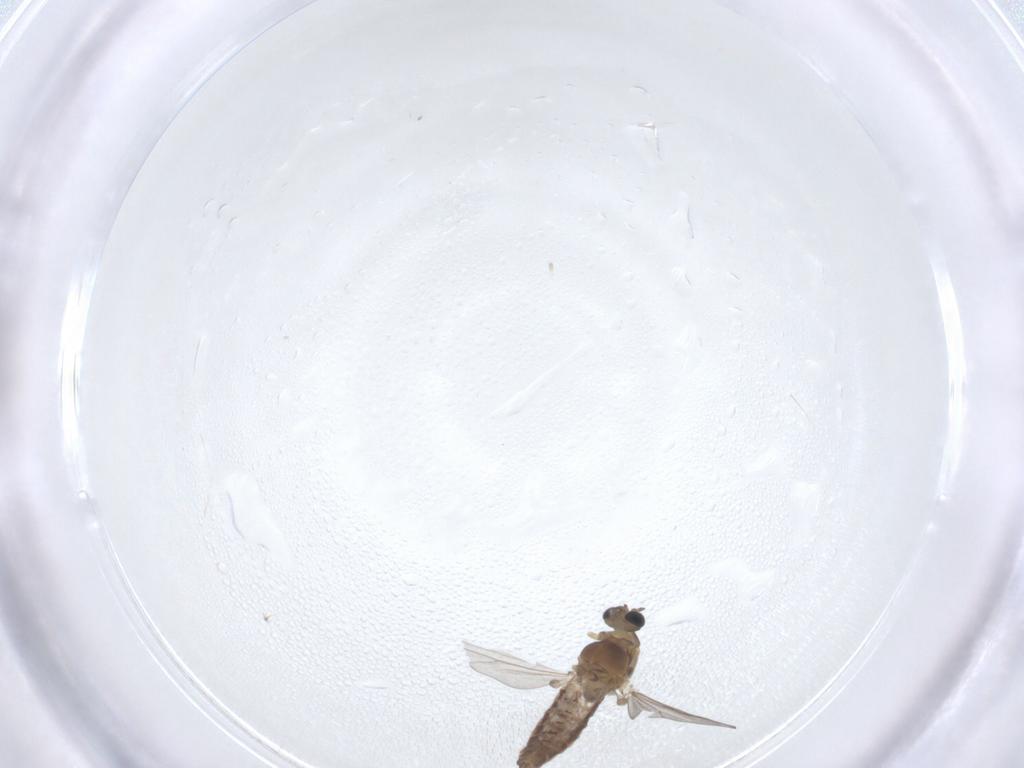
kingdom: Animalia
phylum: Arthropoda
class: Insecta
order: Diptera
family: Chironomidae
